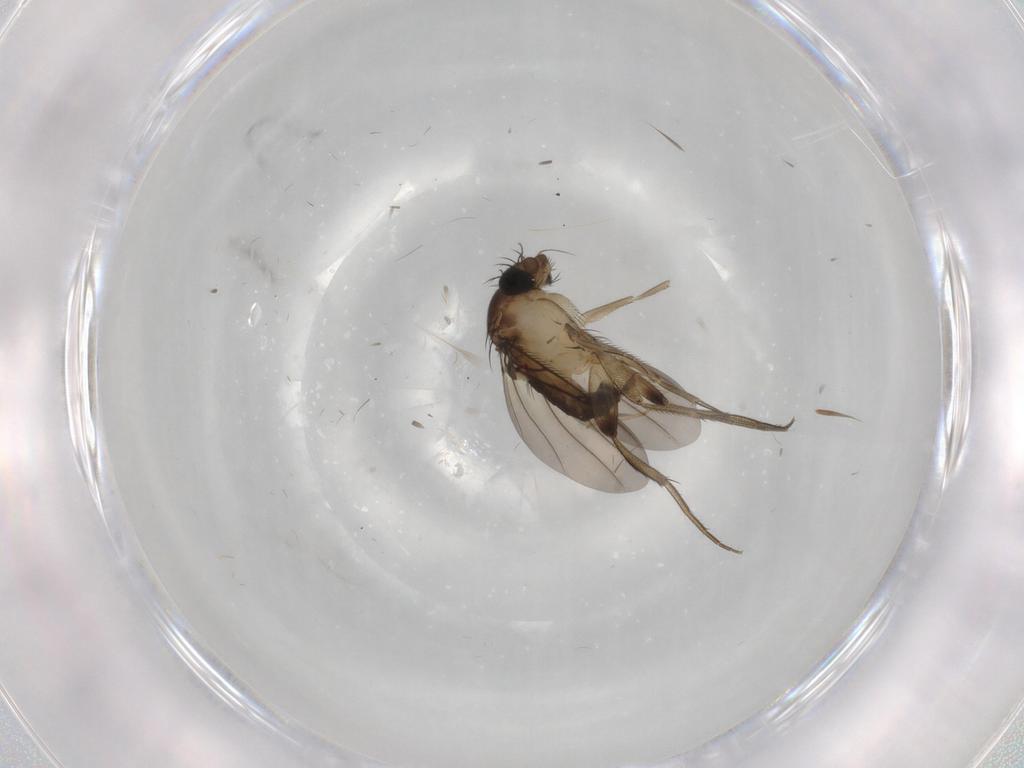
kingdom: Animalia
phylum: Arthropoda
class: Insecta
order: Diptera
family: Phoridae
